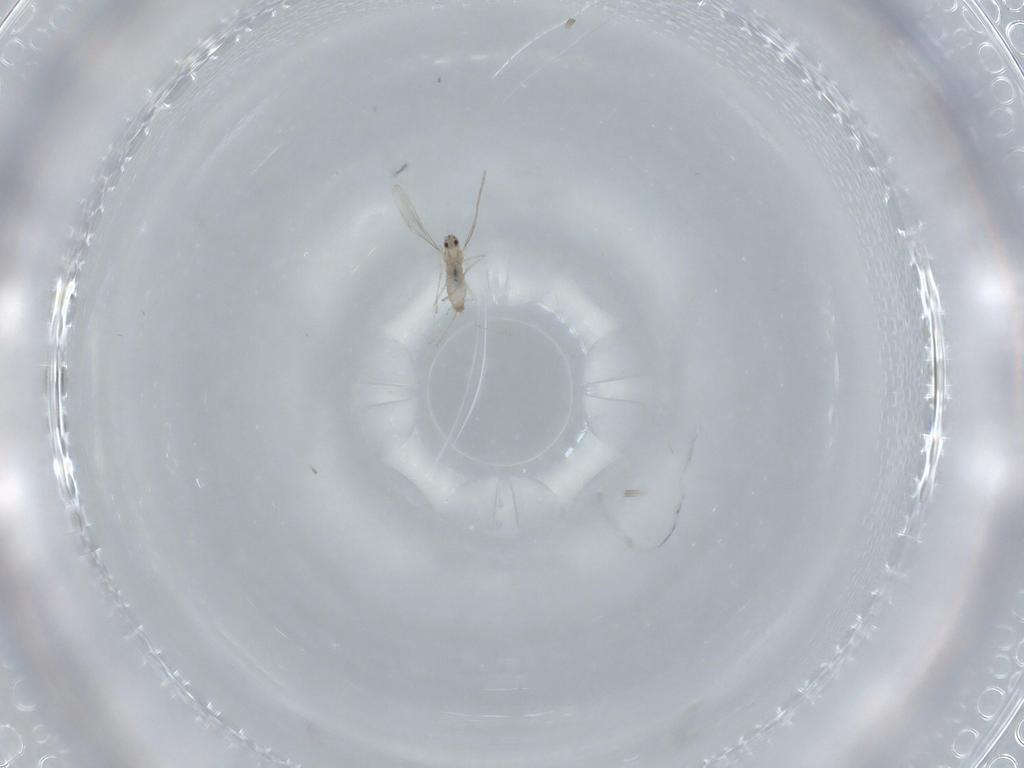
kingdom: Animalia
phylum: Arthropoda
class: Insecta
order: Diptera
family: Cecidomyiidae
